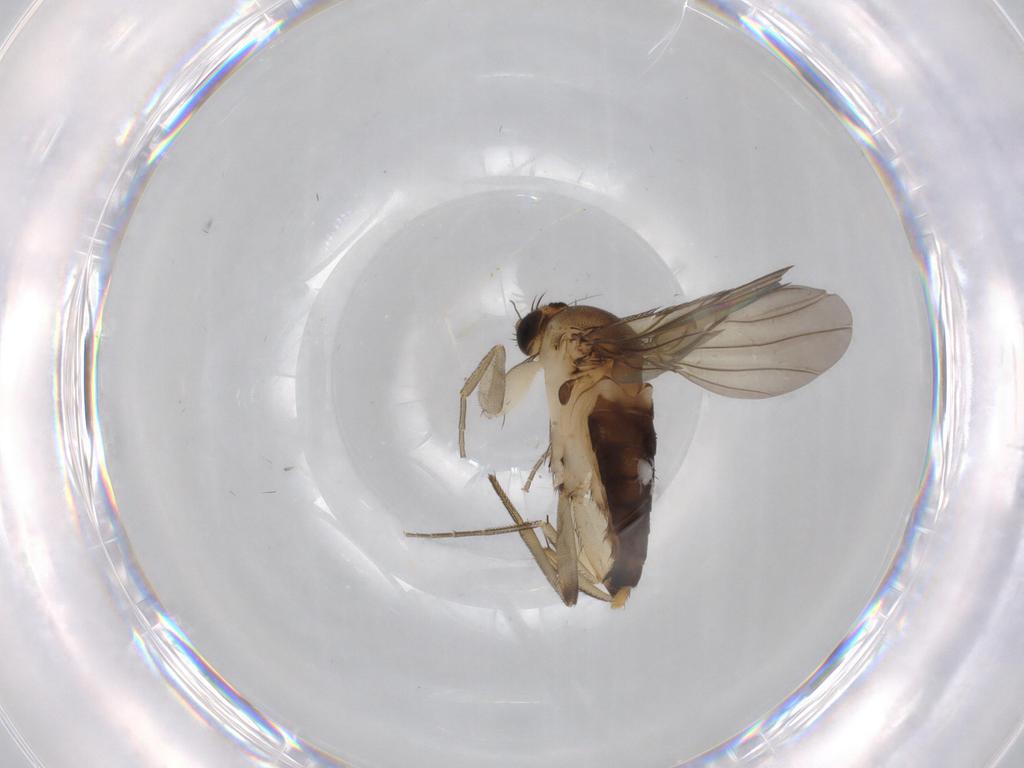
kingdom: Animalia
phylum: Arthropoda
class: Insecta
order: Diptera
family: Phoridae
